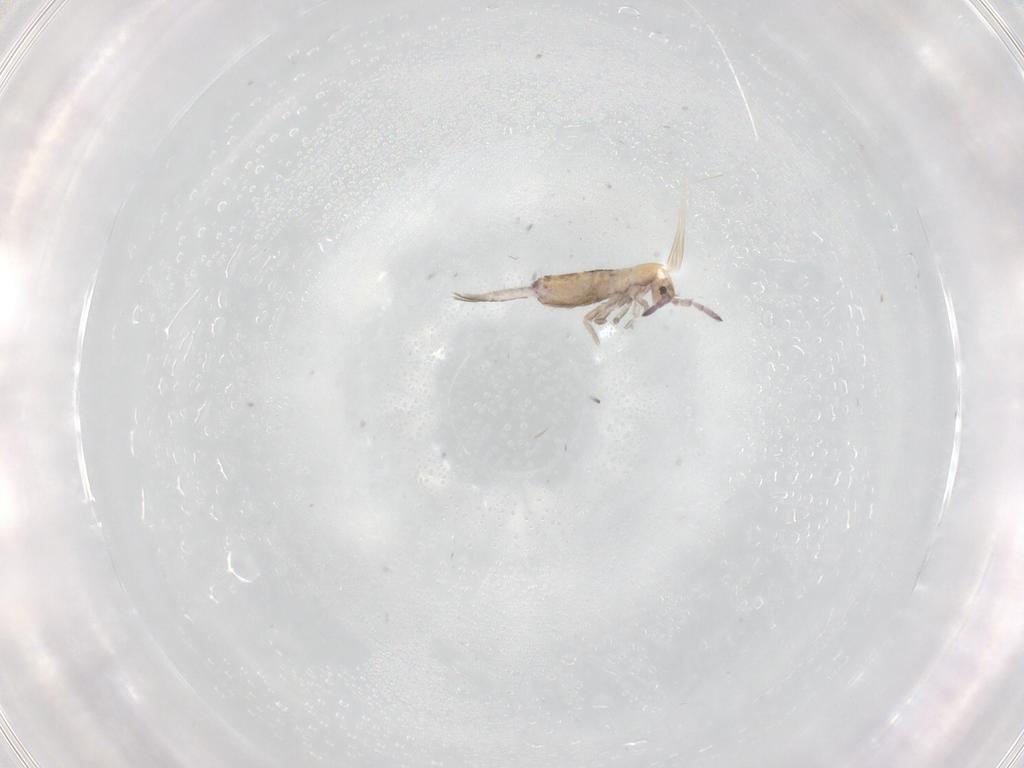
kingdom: Animalia
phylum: Arthropoda
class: Collembola
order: Entomobryomorpha
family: Entomobryidae
